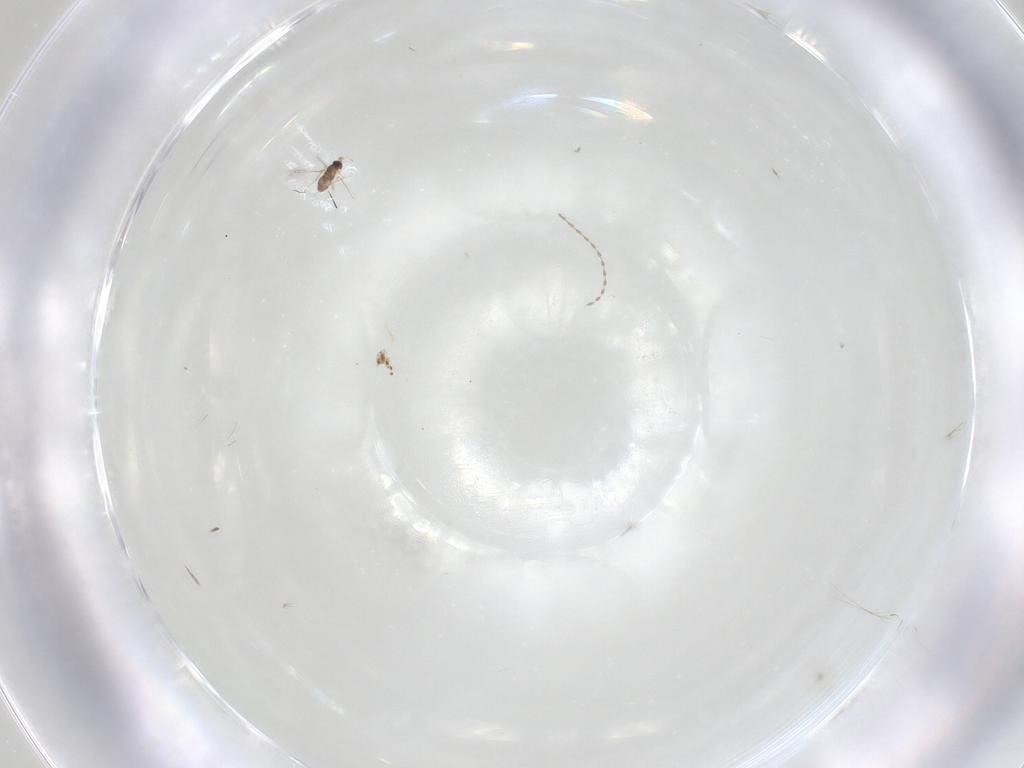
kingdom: Animalia
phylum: Arthropoda
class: Insecta
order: Hymenoptera
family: Mymaridae
